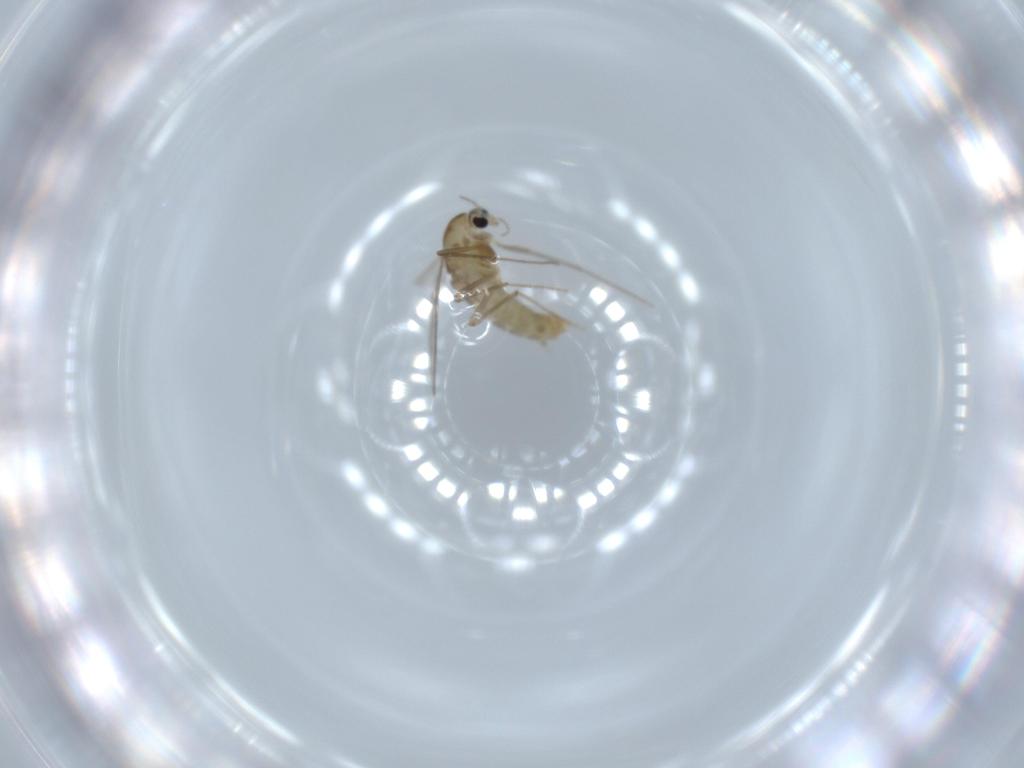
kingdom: Animalia
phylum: Arthropoda
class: Insecta
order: Diptera
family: Chironomidae
